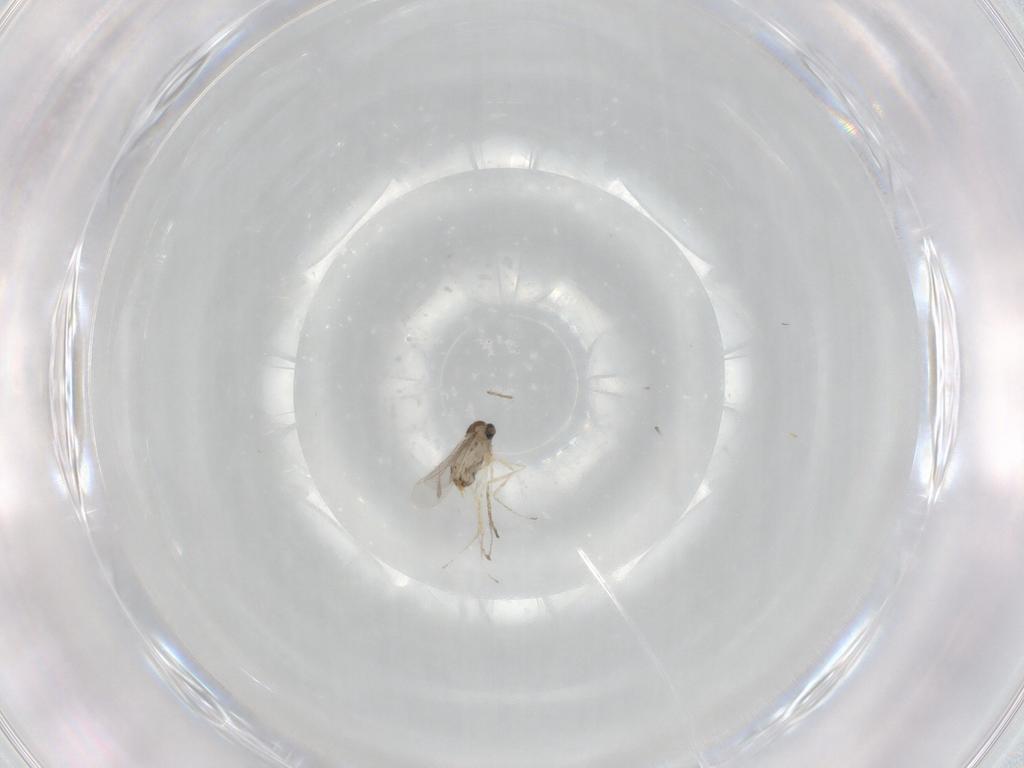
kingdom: Animalia
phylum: Arthropoda
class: Insecta
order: Diptera
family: Cecidomyiidae
